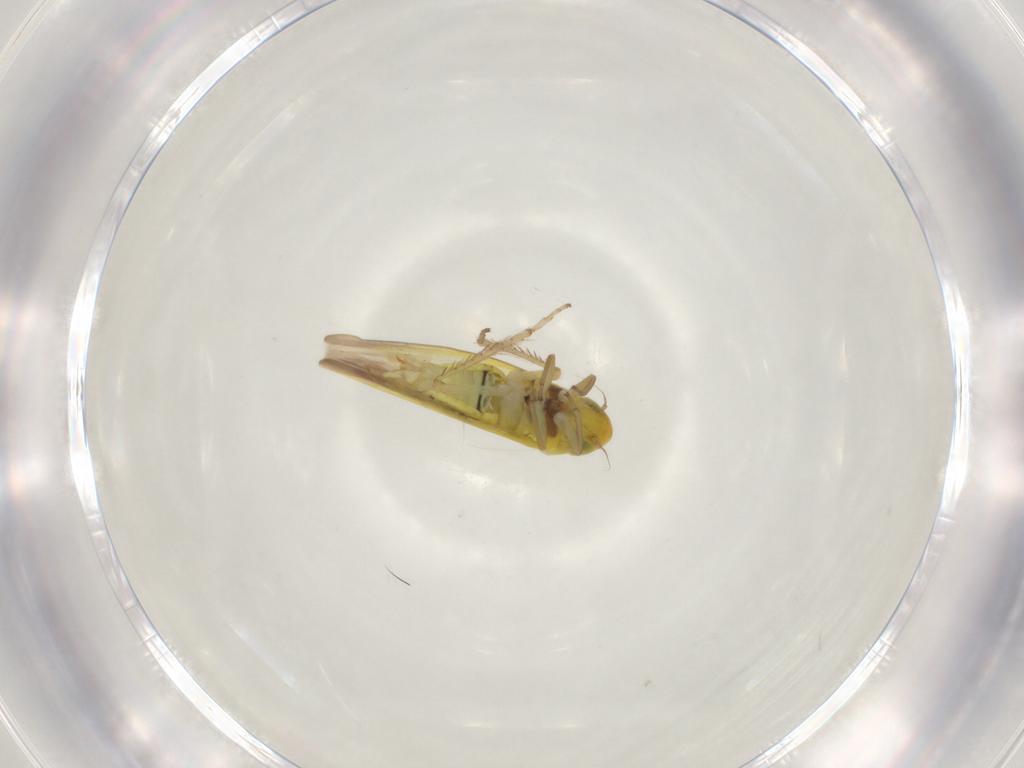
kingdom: Animalia
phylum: Arthropoda
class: Insecta
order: Hemiptera
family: Cicadellidae
